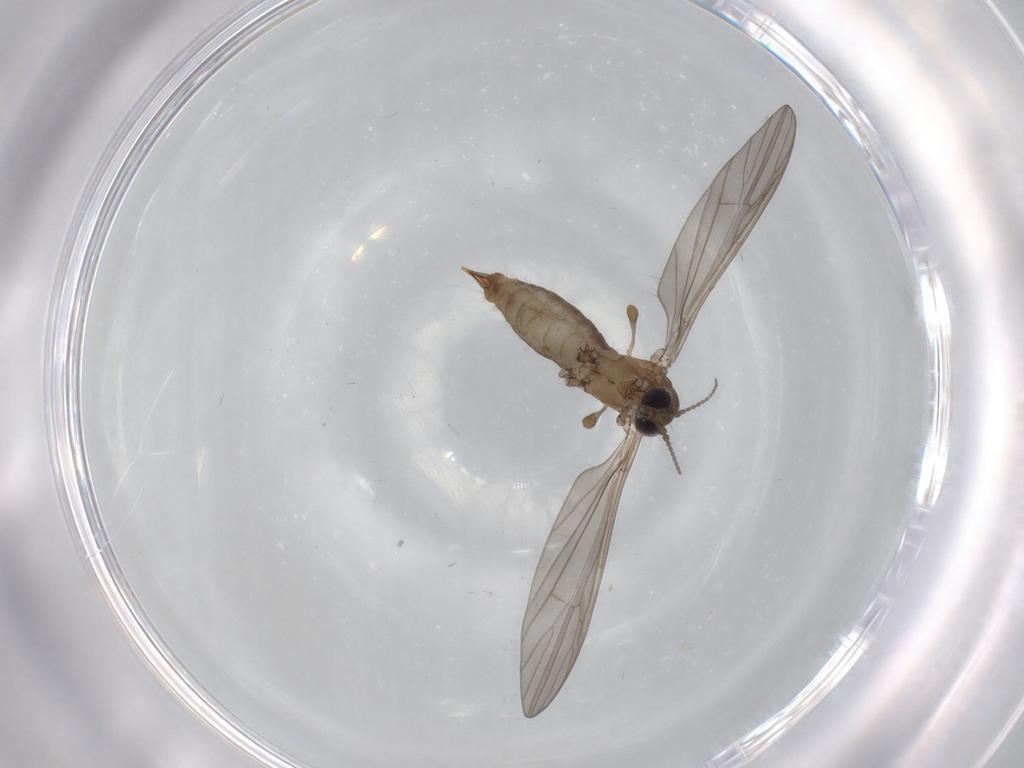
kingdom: Animalia
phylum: Arthropoda
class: Insecta
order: Diptera
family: Limoniidae
